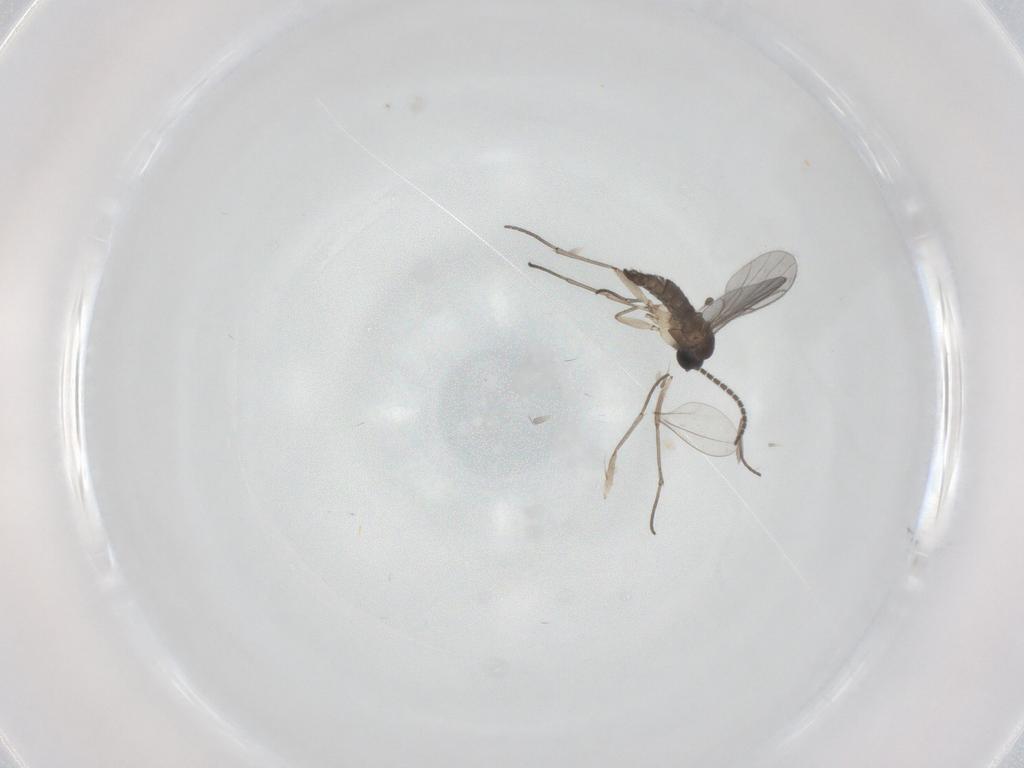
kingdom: Animalia
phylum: Arthropoda
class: Insecta
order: Diptera
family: Sciaridae
